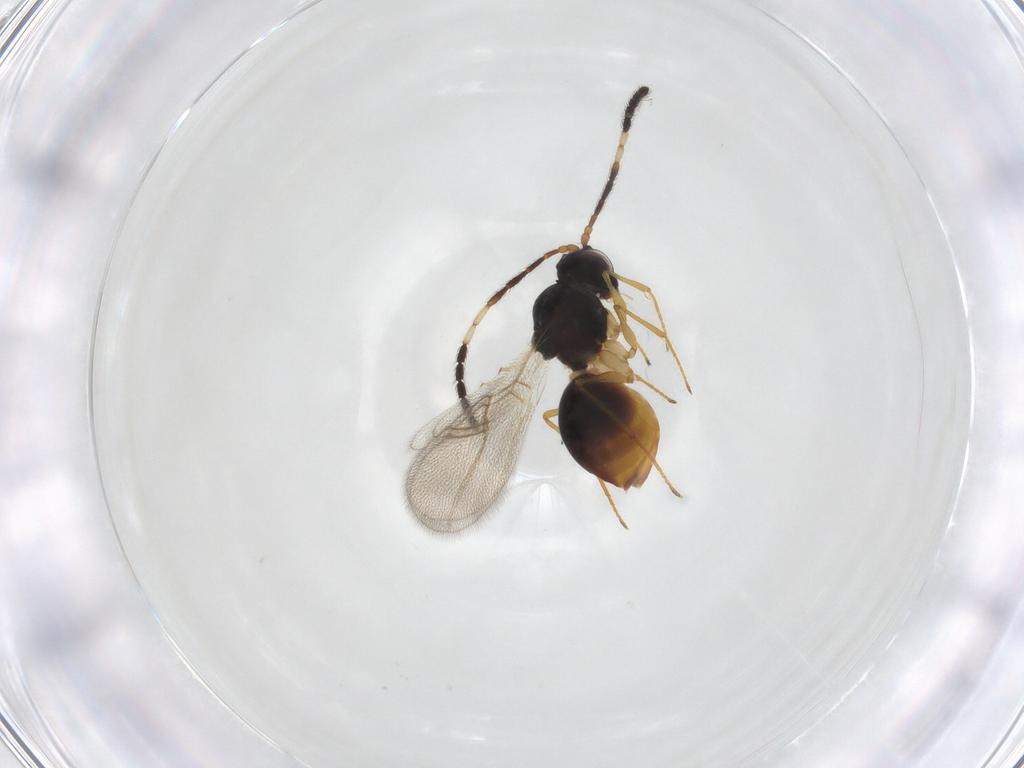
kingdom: Animalia
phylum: Arthropoda
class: Insecta
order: Hymenoptera
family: Figitidae
